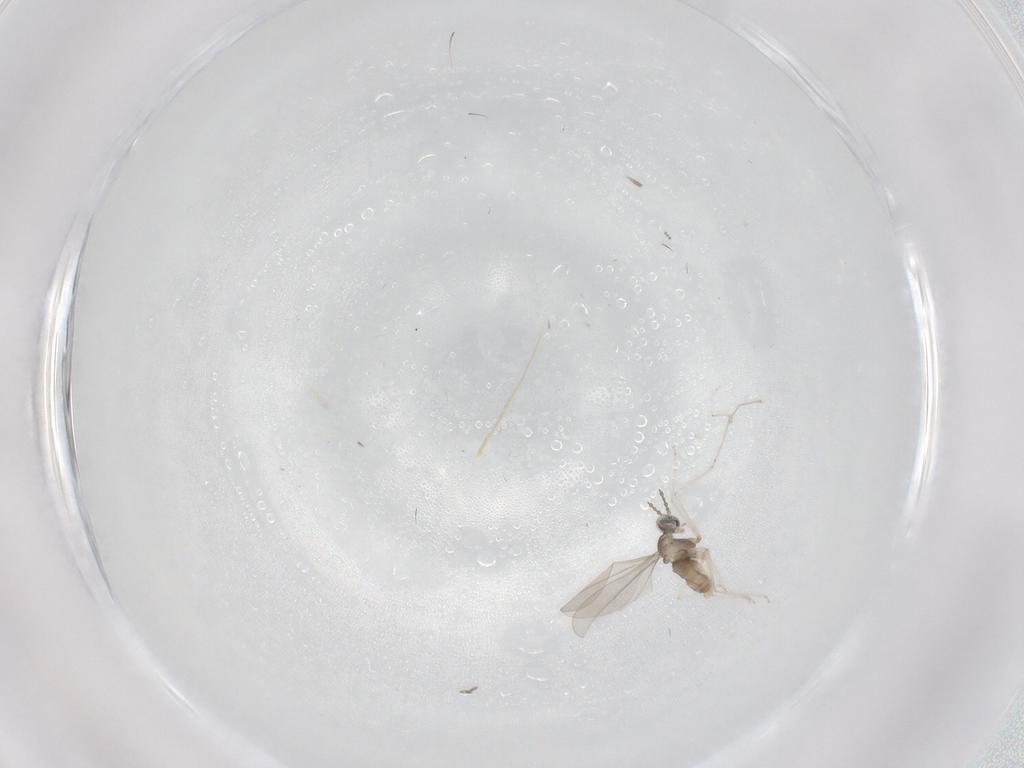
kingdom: Animalia
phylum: Arthropoda
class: Insecta
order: Diptera
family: Cecidomyiidae
